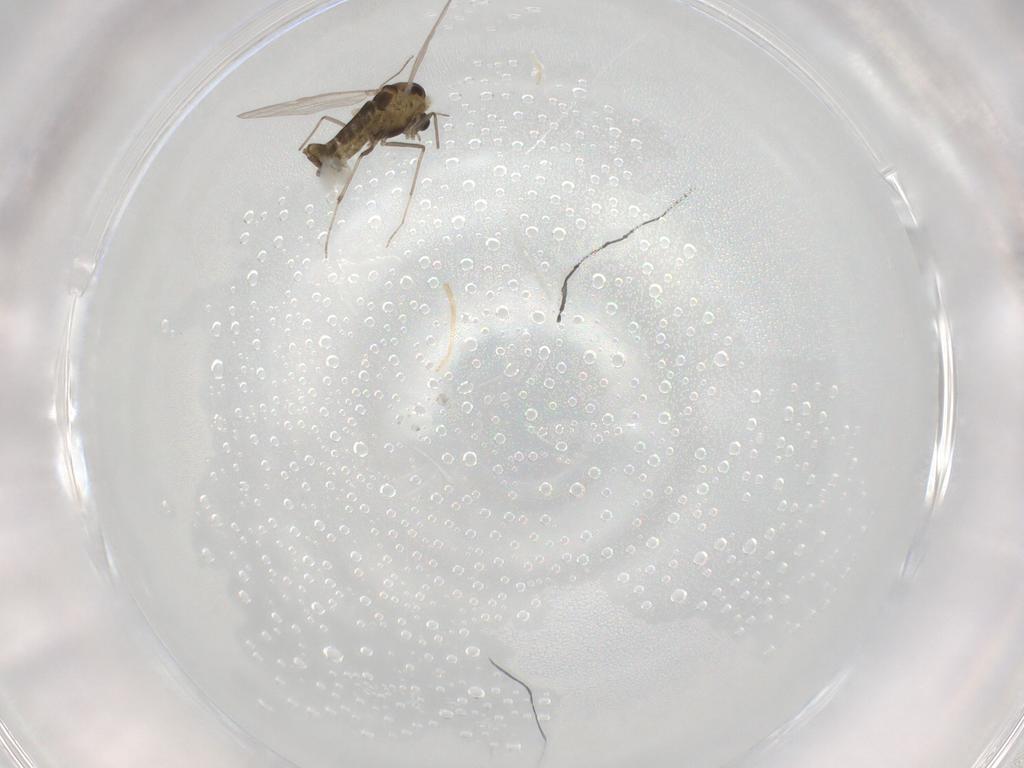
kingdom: Animalia
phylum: Arthropoda
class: Insecta
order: Diptera
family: Chironomidae
